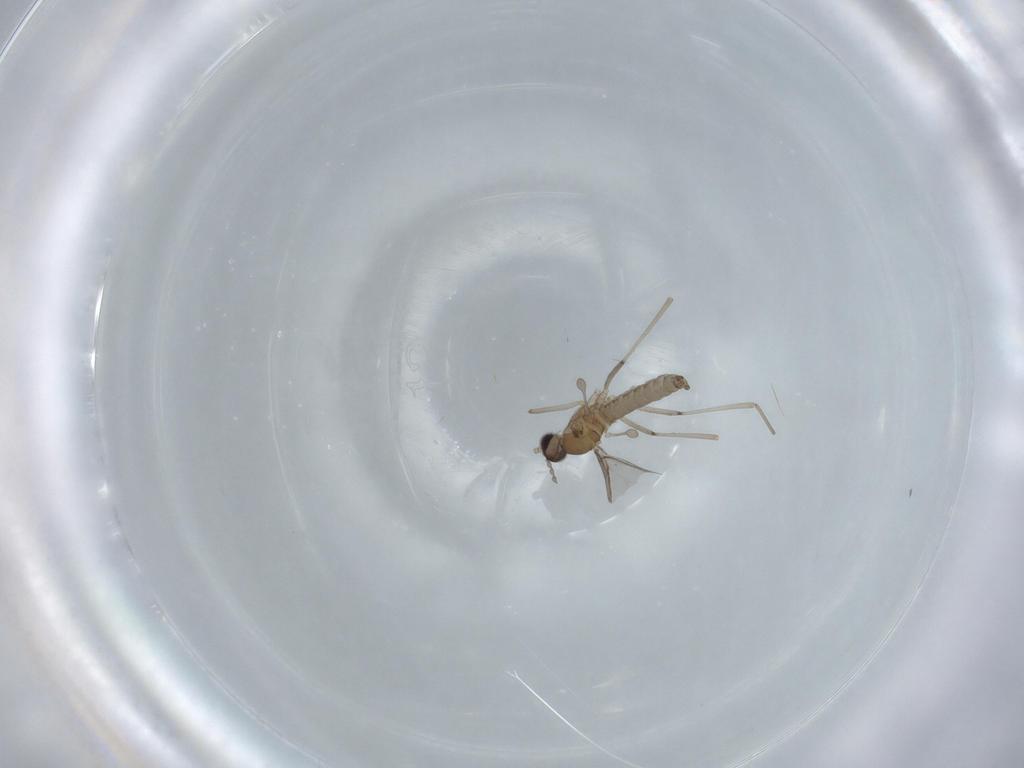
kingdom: Animalia
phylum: Arthropoda
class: Insecta
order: Diptera
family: Cecidomyiidae
